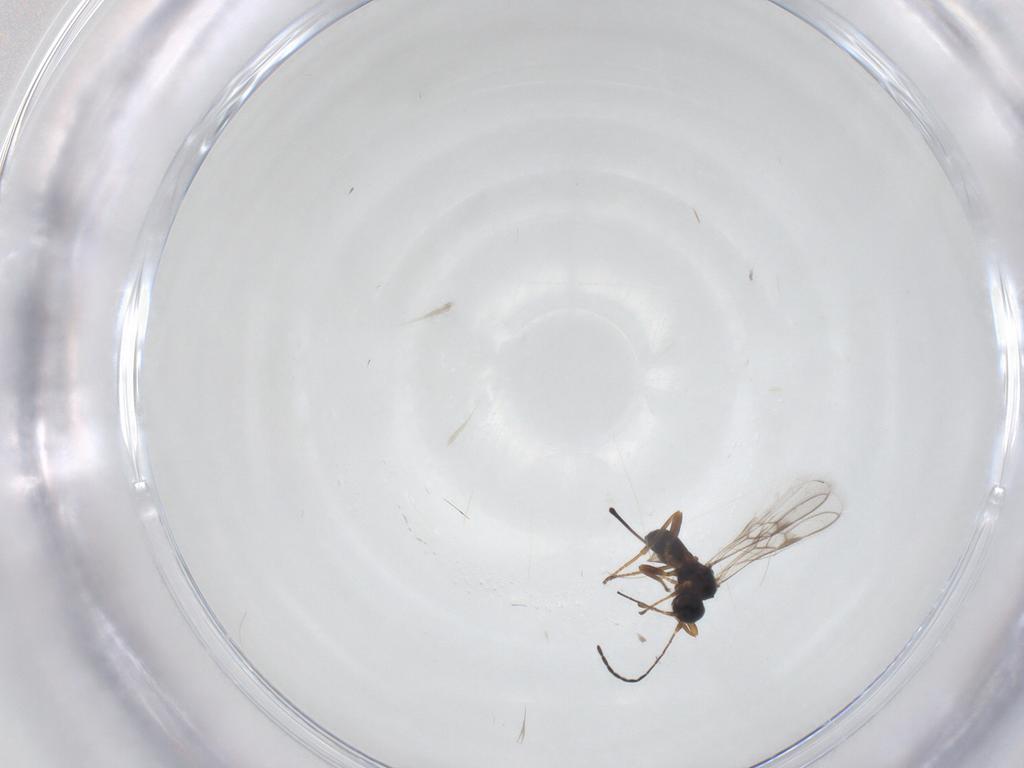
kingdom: Animalia
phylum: Arthropoda
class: Insecta
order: Hymenoptera
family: Braconidae
